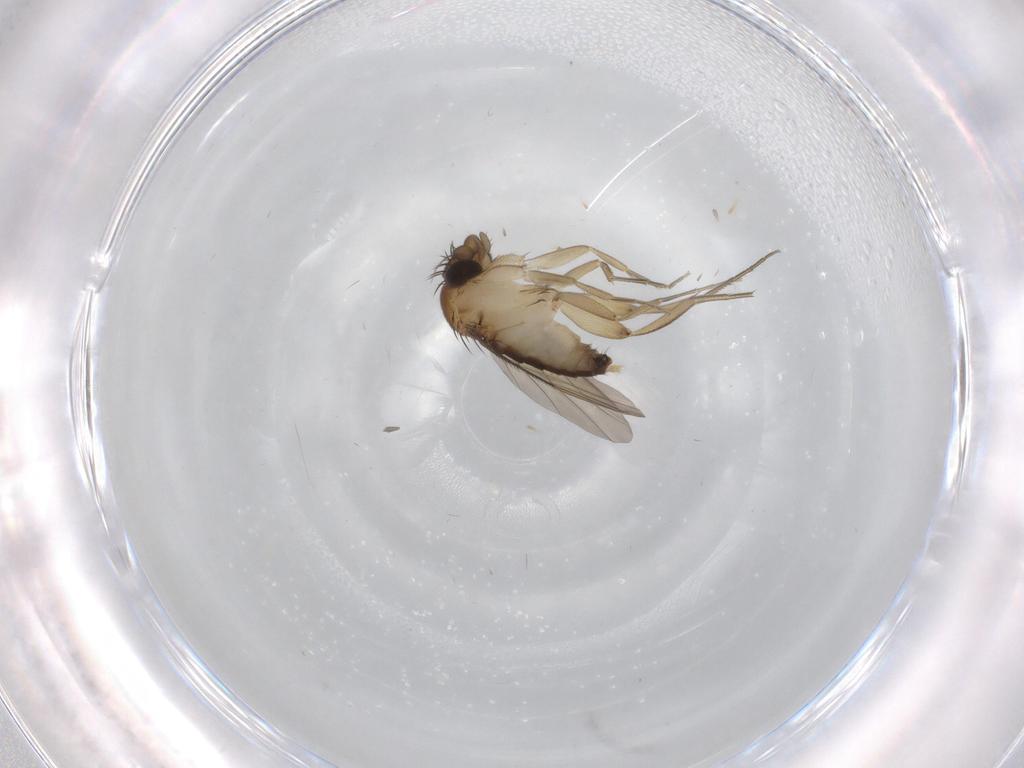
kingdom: Animalia
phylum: Arthropoda
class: Insecta
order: Diptera
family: Phoridae
